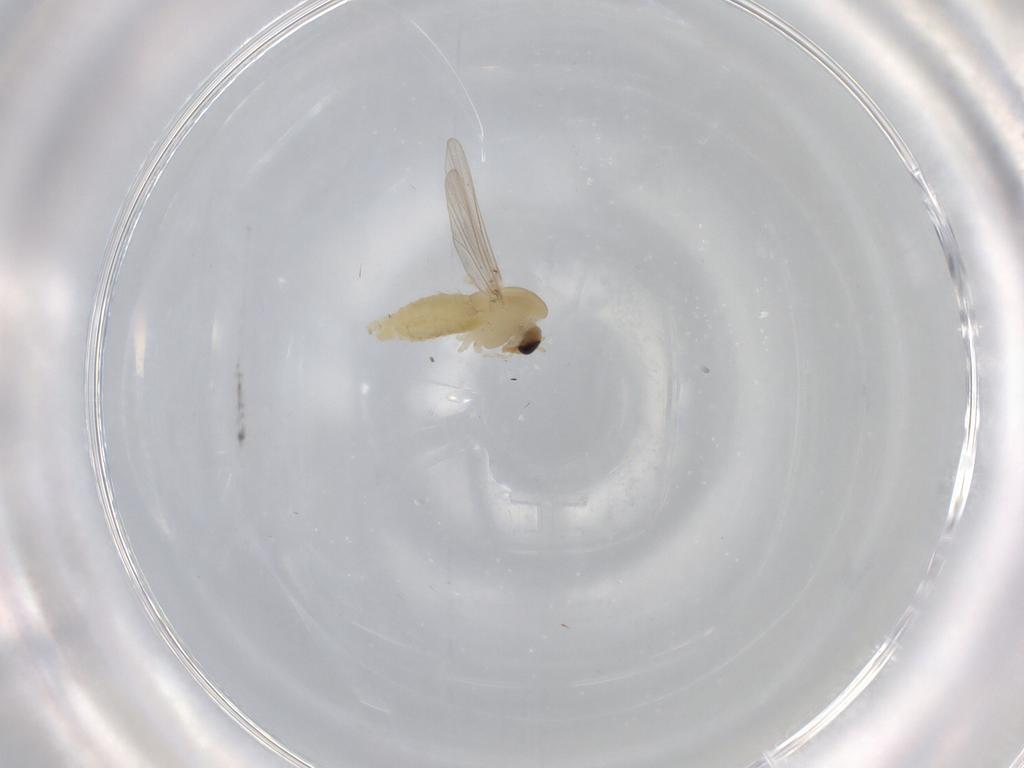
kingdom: Animalia
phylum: Arthropoda
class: Insecta
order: Diptera
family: Chironomidae
